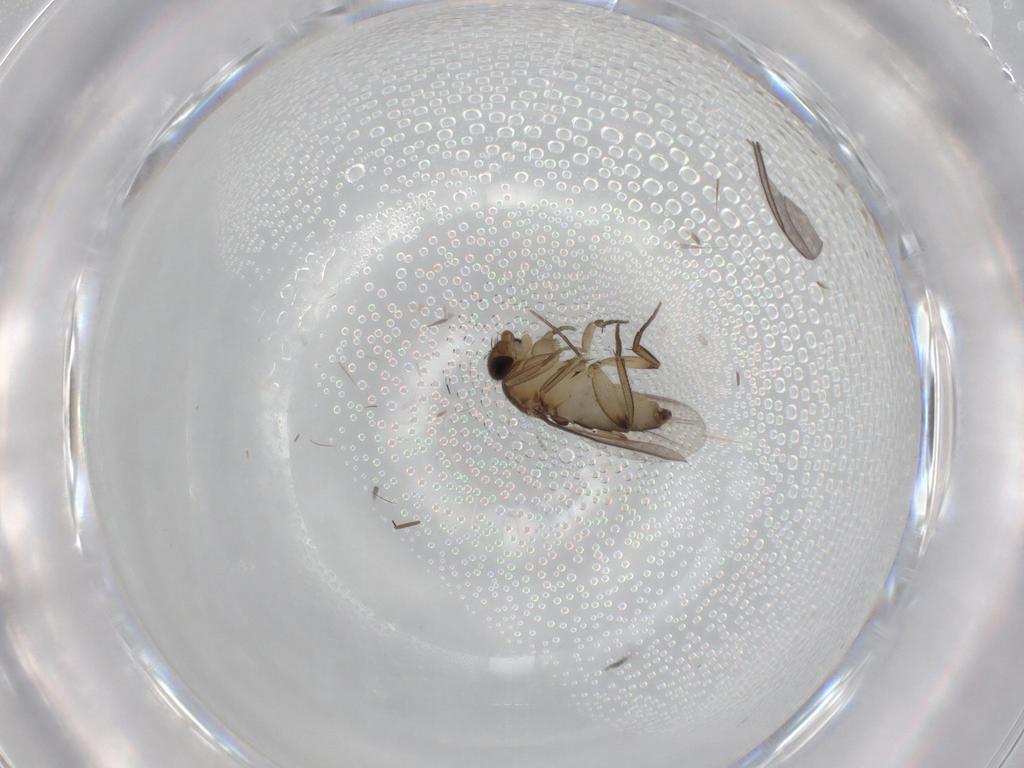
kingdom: Animalia
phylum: Arthropoda
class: Insecta
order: Diptera
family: Phoridae
